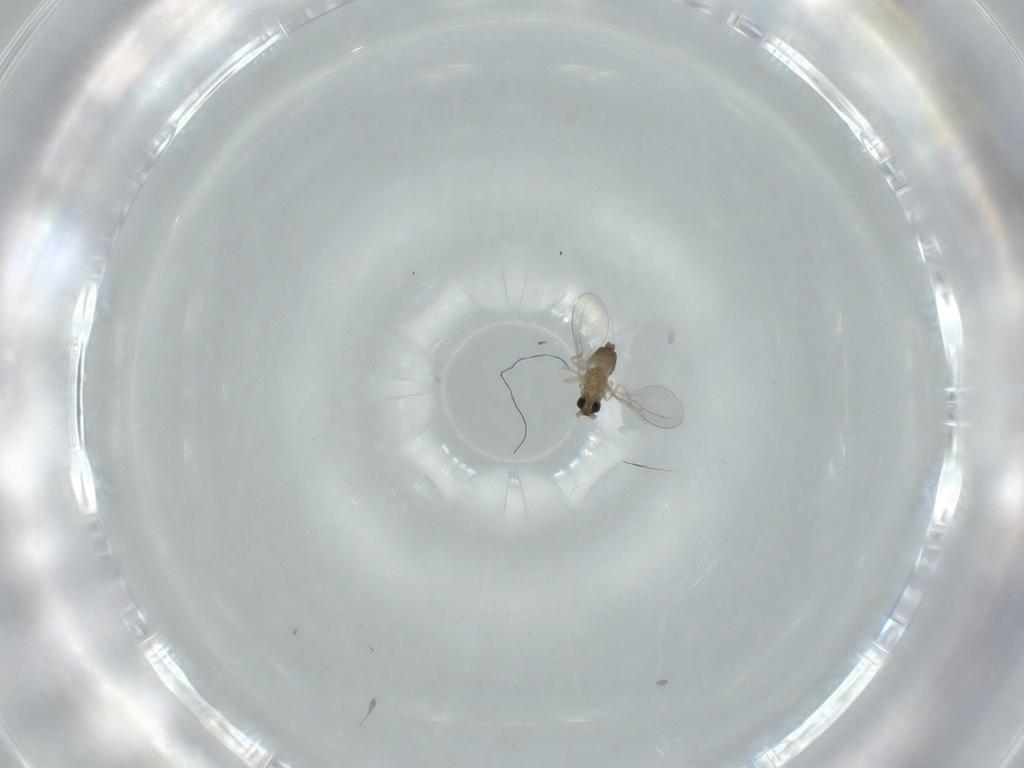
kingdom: Animalia
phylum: Arthropoda
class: Insecta
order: Diptera
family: Cecidomyiidae
